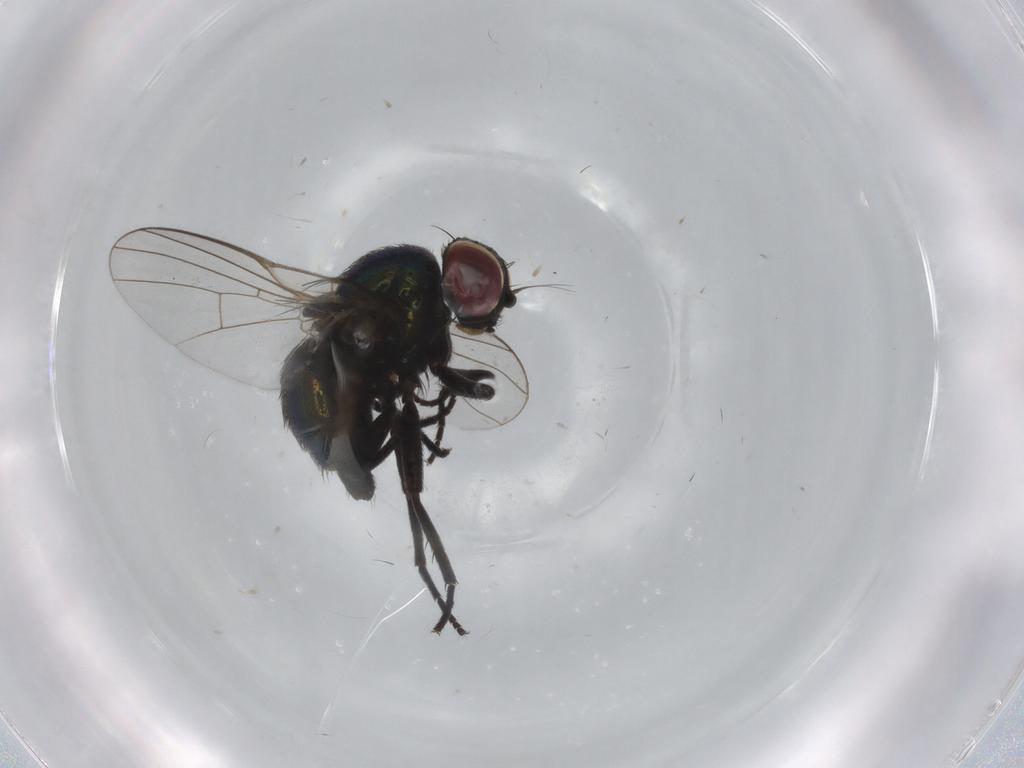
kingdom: Animalia
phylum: Arthropoda
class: Insecta
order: Diptera
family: Agromyzidae
